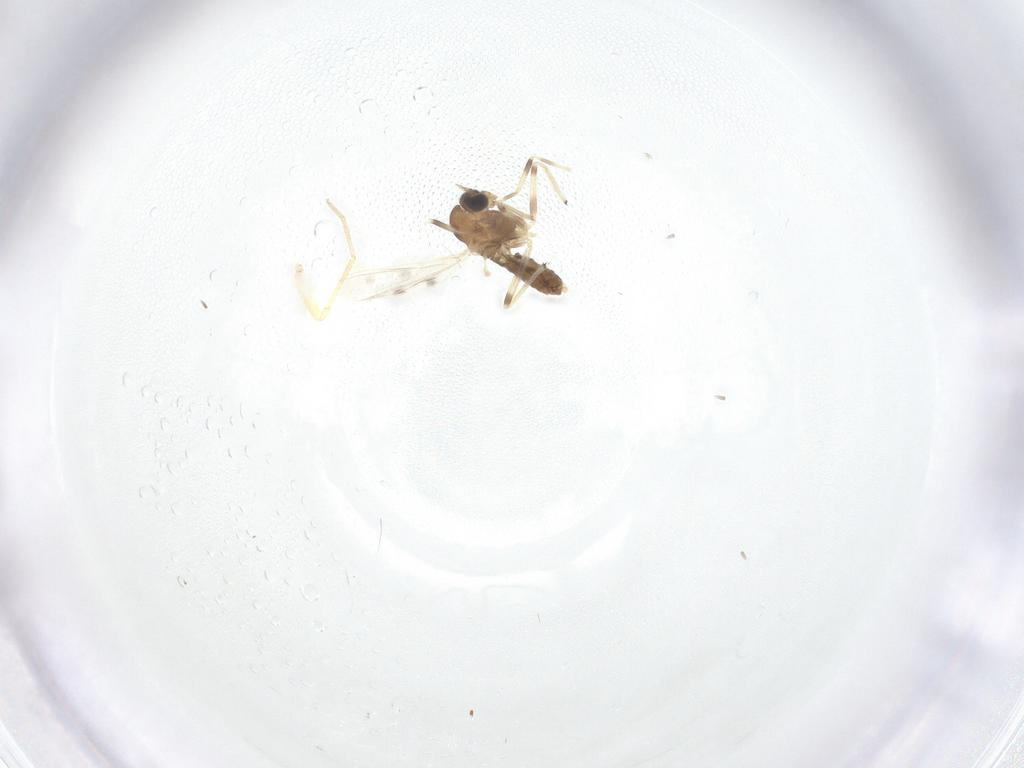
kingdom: Animalia
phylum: Arthropoda
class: Insecta
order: Diptera
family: Chironomidae
